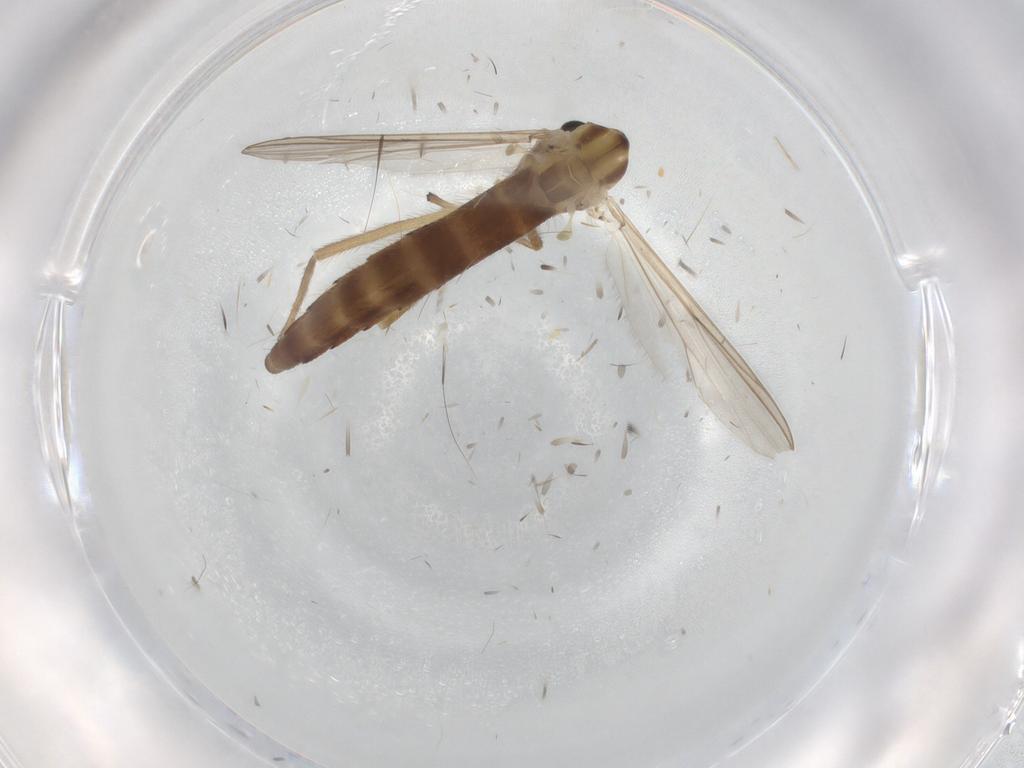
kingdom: Animalia
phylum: Arthropoda
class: Insecta
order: Diptera
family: Chironomidae
